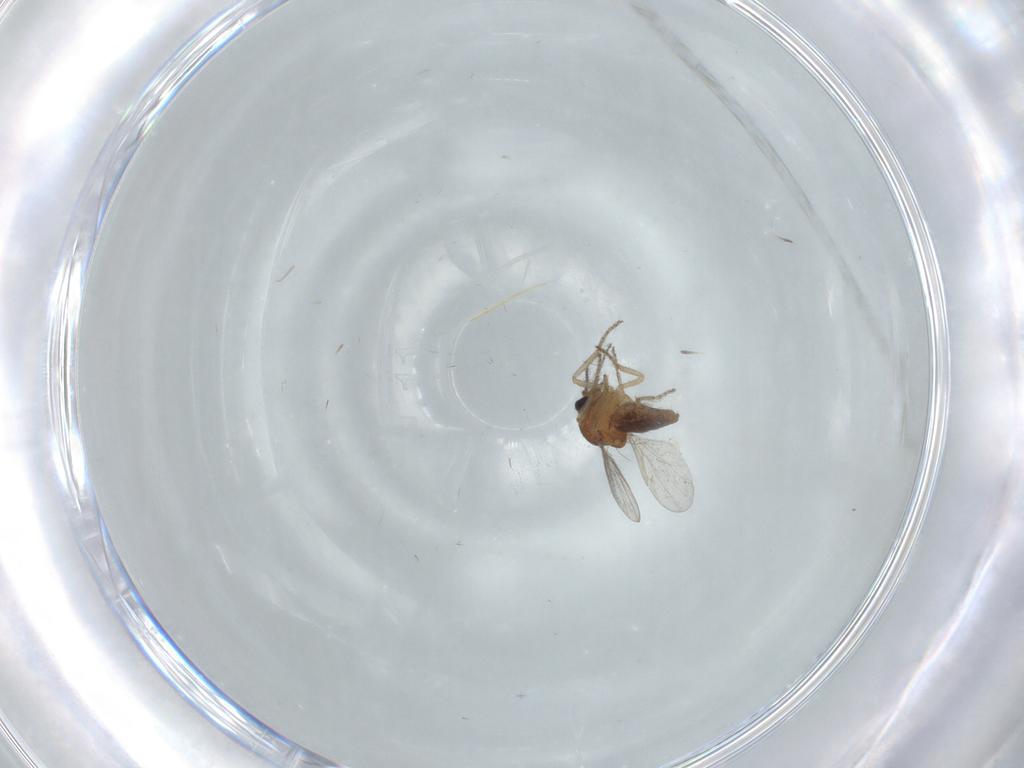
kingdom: Animalia
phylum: Arthropoda
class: Insecta
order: Diptera
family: Ceratopogonidae
